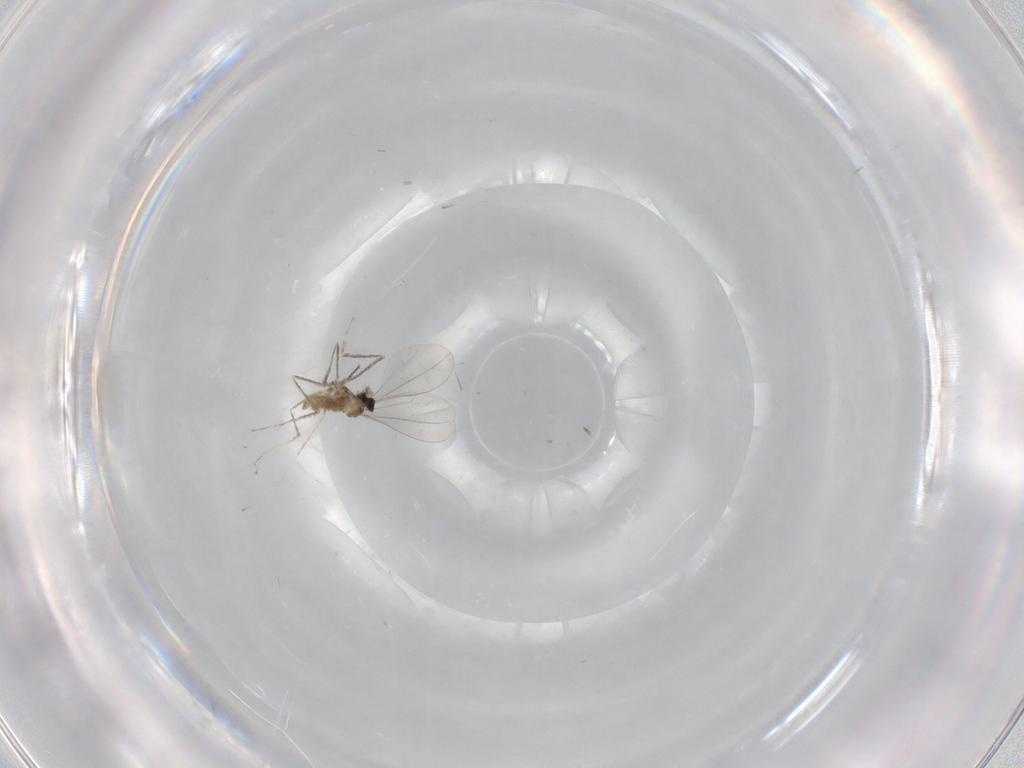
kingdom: Animalia
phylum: Arthropoda
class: Insecta
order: Diptera
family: Cecidomyiidae
